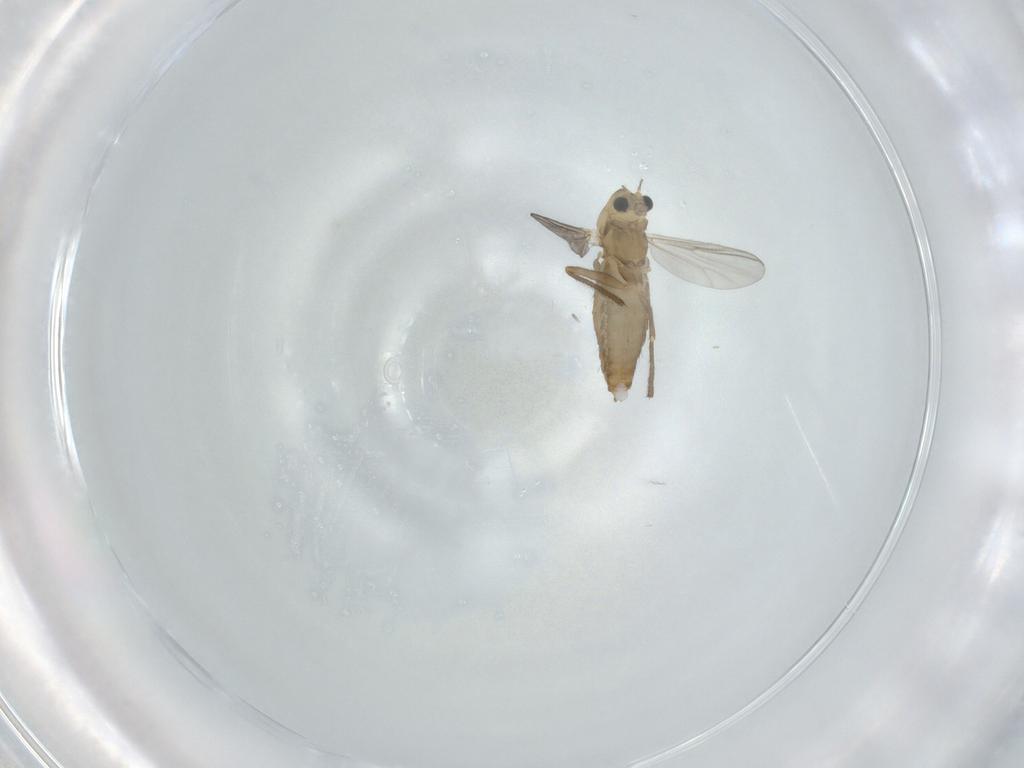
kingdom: Animalia
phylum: Arthropoda
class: Insecta
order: Diptera
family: Chironomidae
